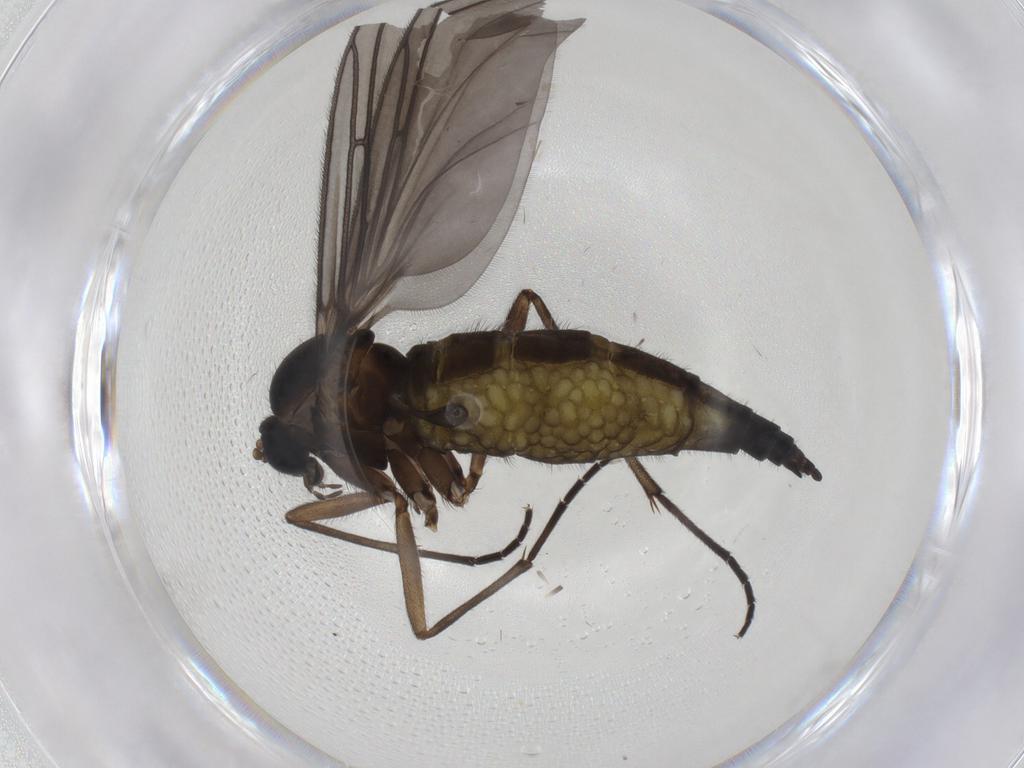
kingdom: Animalia
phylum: Arthropoda
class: Insecta
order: Diptera
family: Sciaridae
